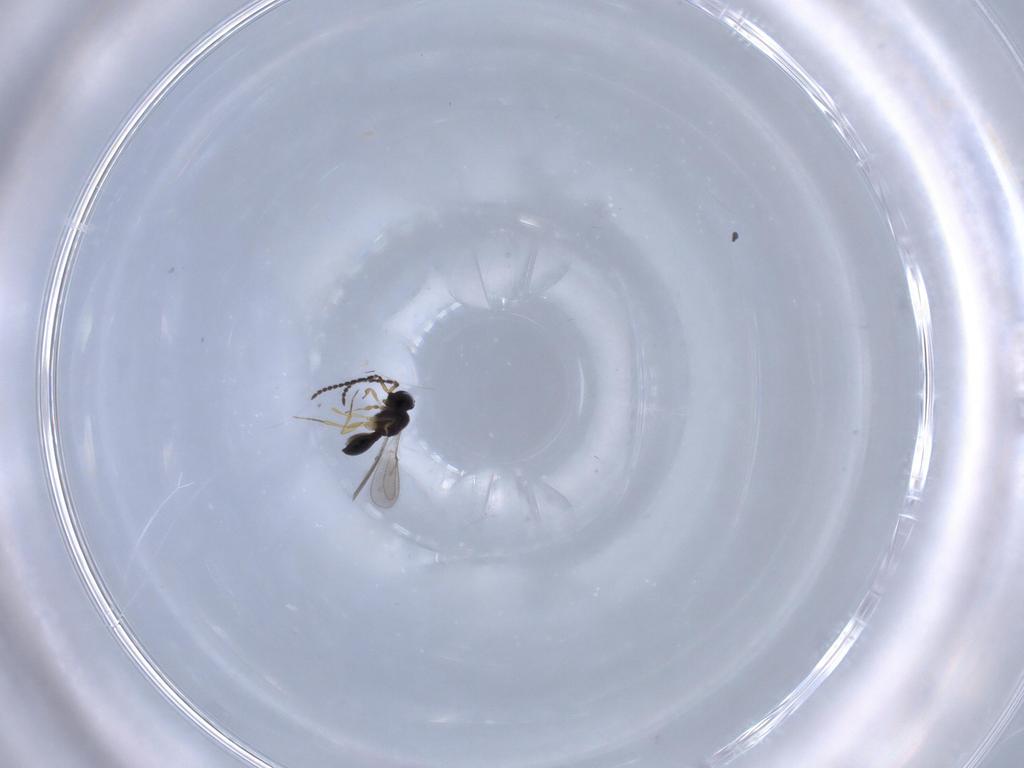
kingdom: Animalia
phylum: Arthropoda
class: Insecta
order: Hymenoptera
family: Scelionidae
